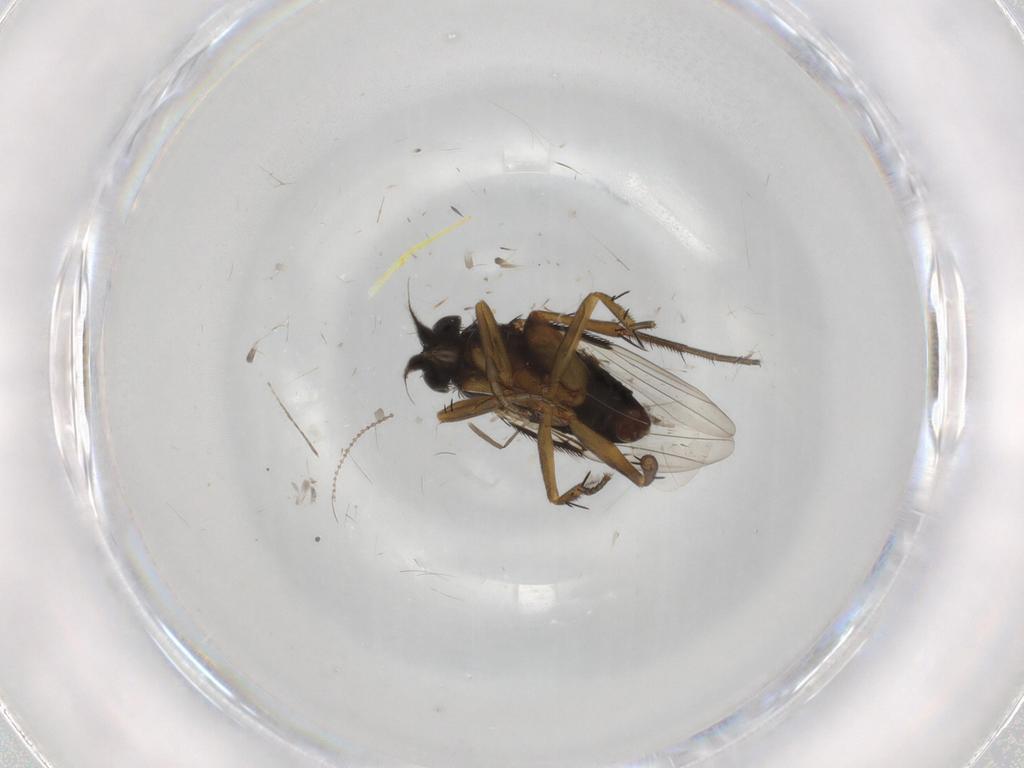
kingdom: Animalia
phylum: Arthropoda
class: Insecta
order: Diptera
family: Phoridae
